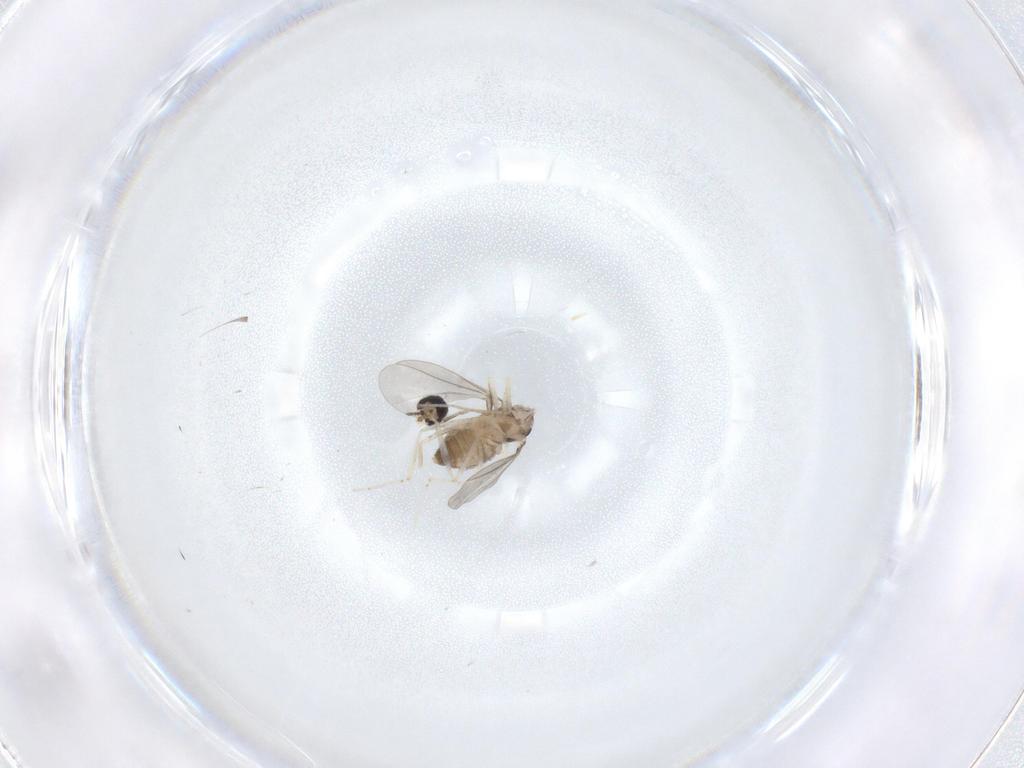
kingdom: Animalia
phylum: Arthropoda
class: Insecta
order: Diptera
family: Cecidomyiidae
